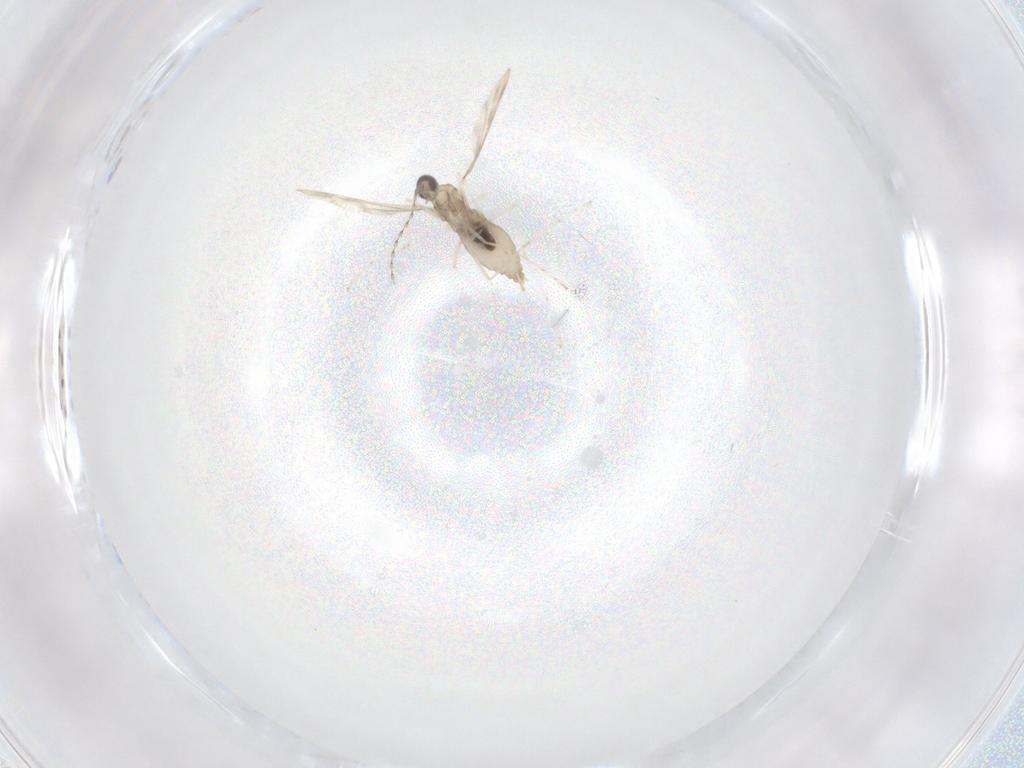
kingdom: Animalia
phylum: Arthropoda
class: Insecta
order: Diptera
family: Cecidomyiidae
